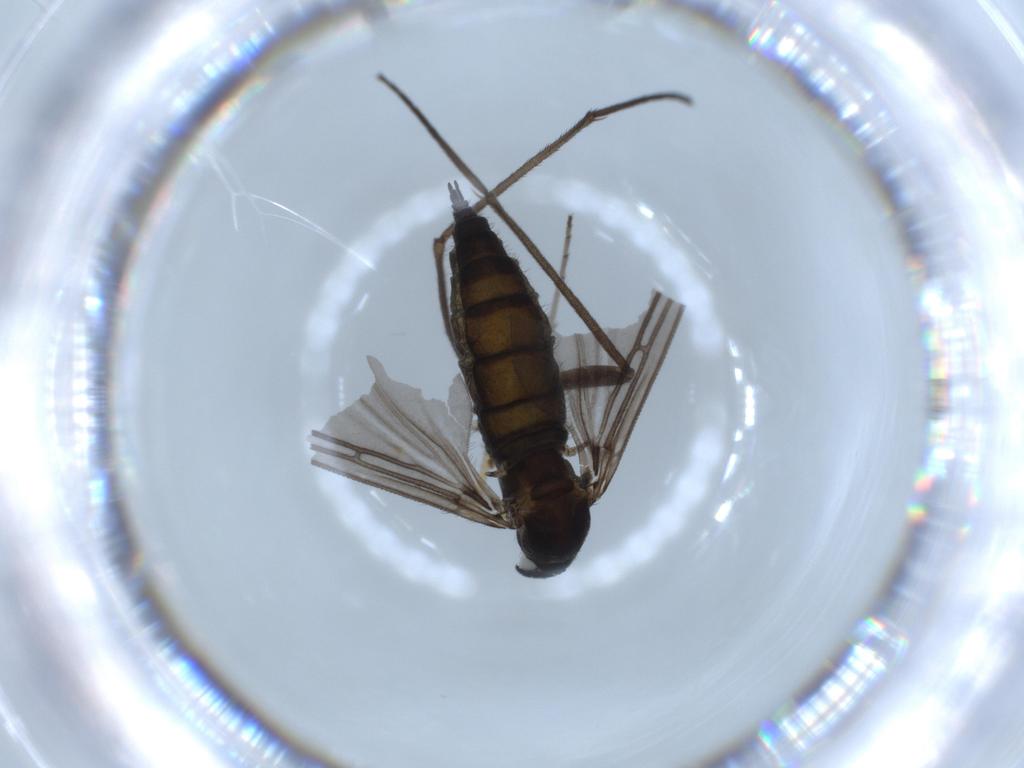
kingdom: Animalia
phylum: Arthropoda
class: Insecta
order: Diptera
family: Sciaridae
